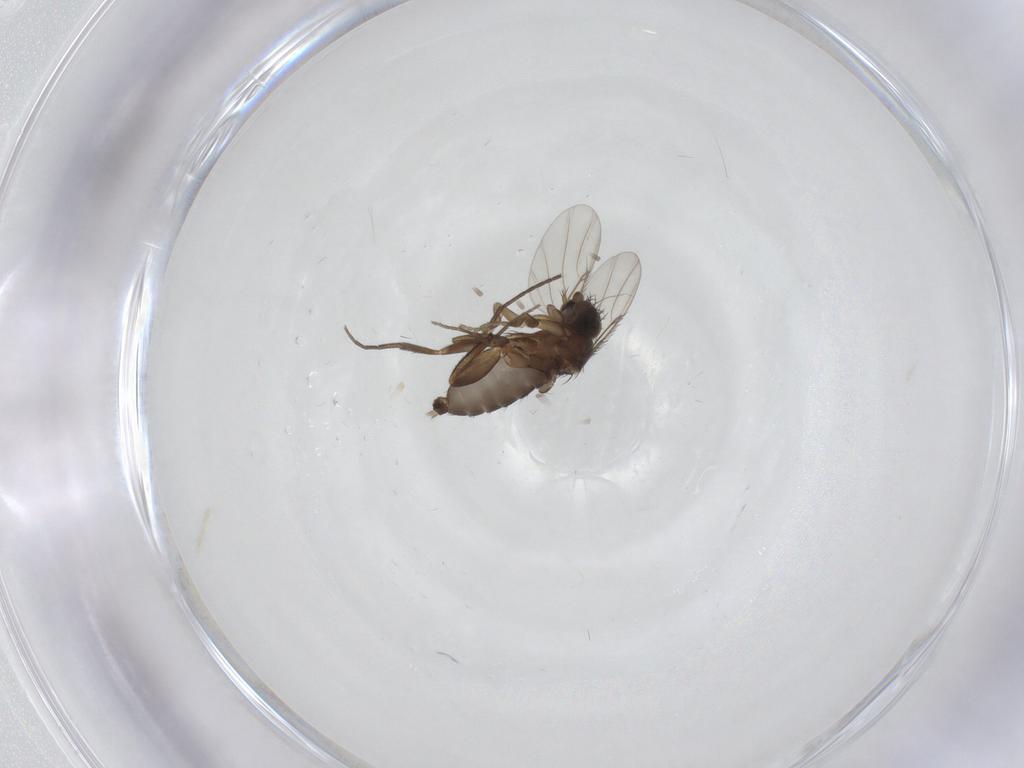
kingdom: Animalia
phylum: Arthropoda
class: Insecta
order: Diptera
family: Phoridae
